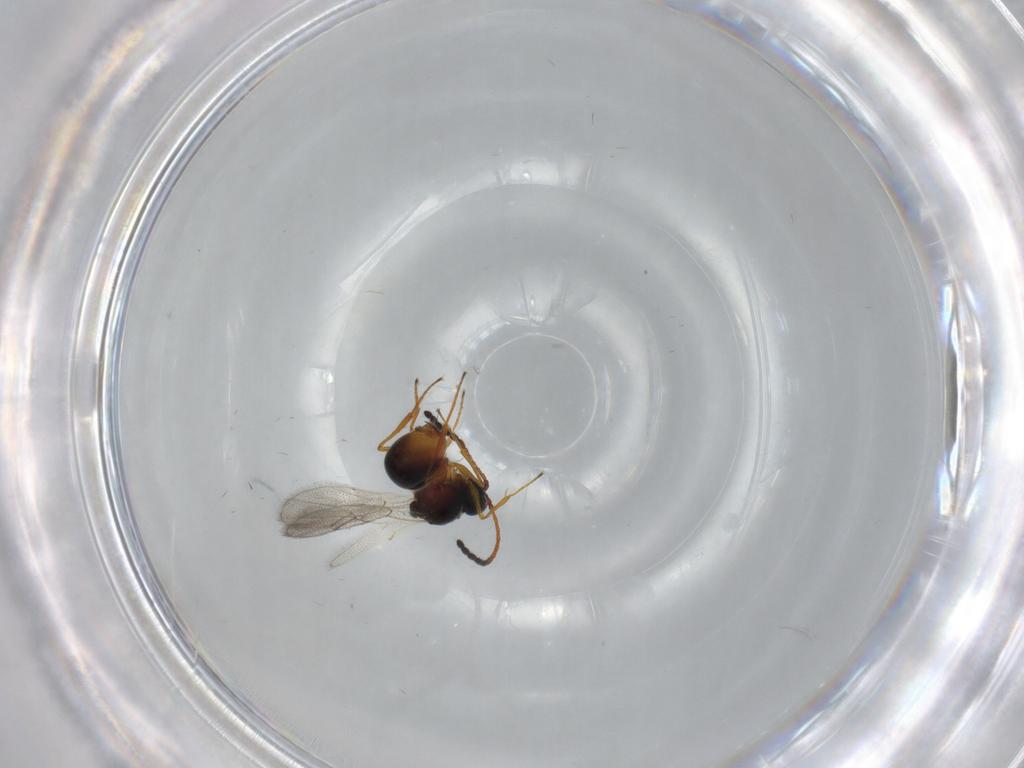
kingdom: Animalia
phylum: Arthropoda
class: Insecta
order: Hymenoptera
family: Figitidae
